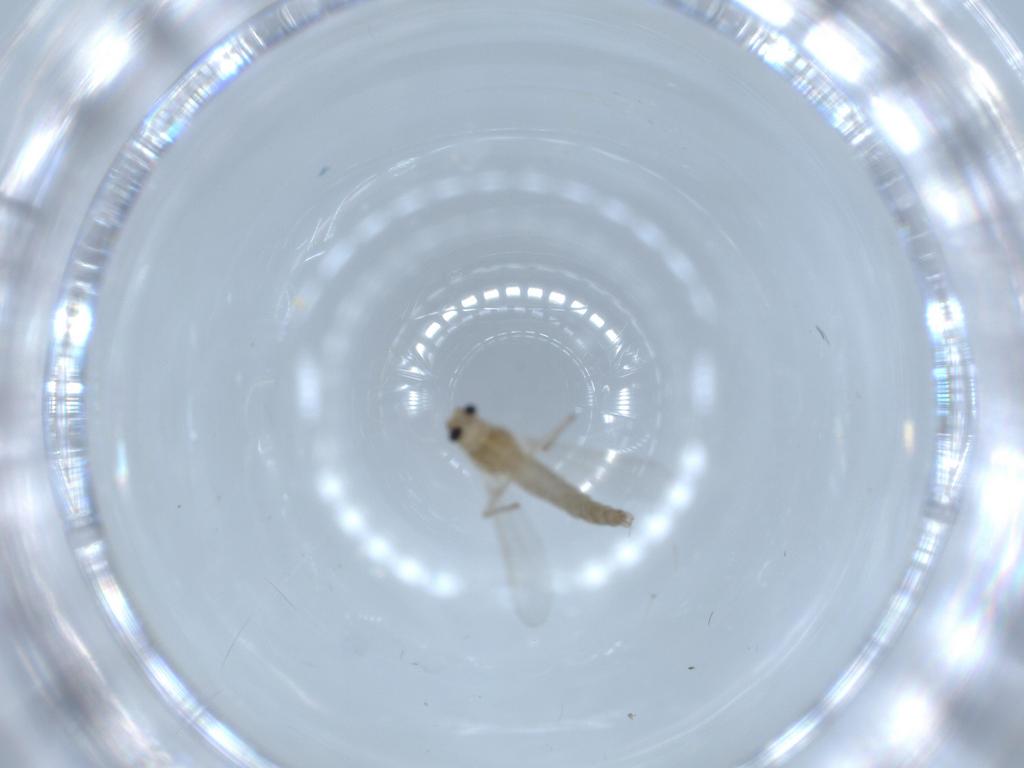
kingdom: Animalia
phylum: Arthropoda
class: Insecta
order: Diptera
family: Chironomidae
